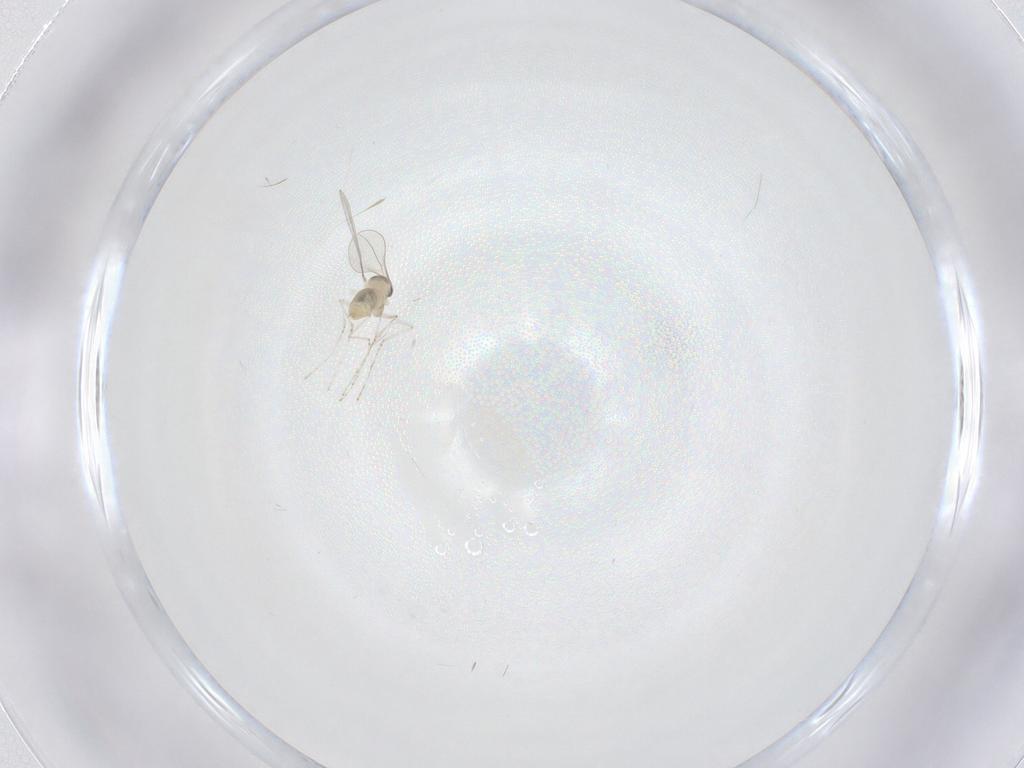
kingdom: Animalia
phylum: Arthropoda
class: Insecta
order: Diptera
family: Cecidomyiidae
